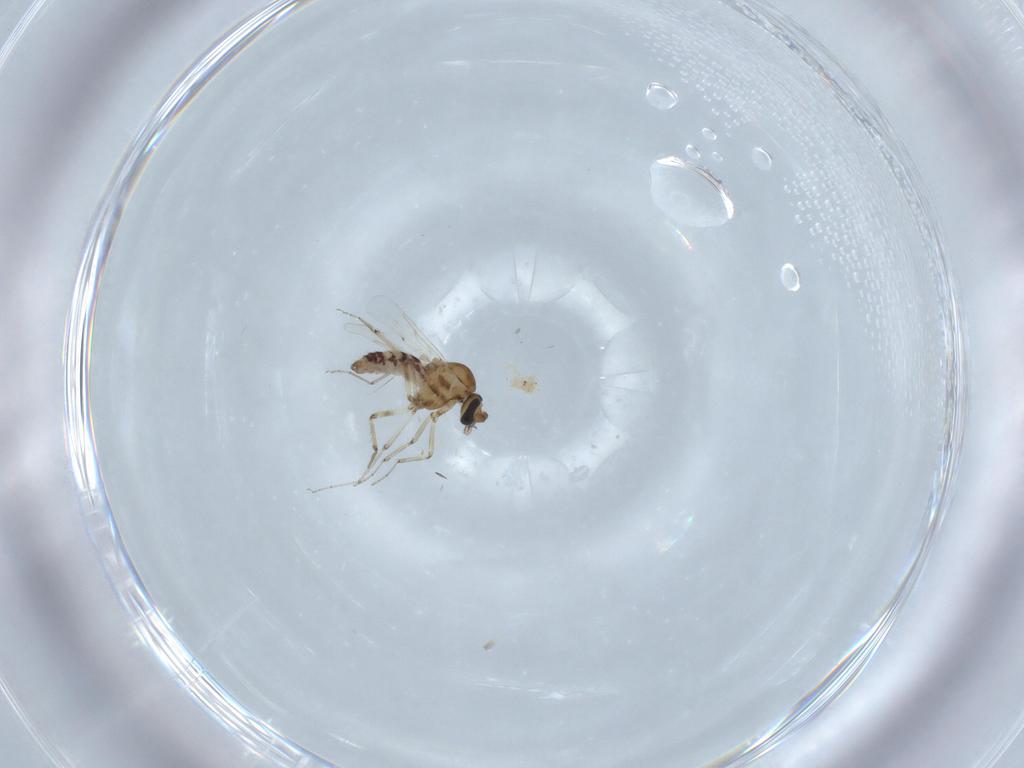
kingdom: Animalia
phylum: Arthropoda
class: Insecta
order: Diptera
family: Ceratopogonidae
